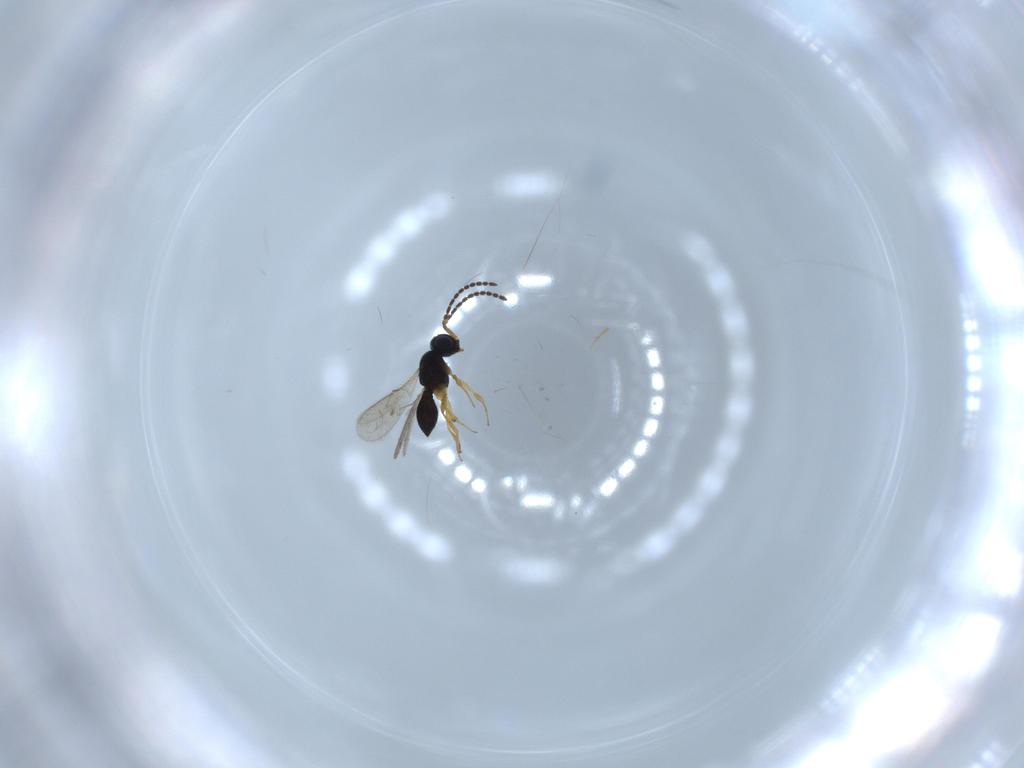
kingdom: Animalia
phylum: Arthropoda
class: Insecta
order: Hymenoptera
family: Scelionidae
